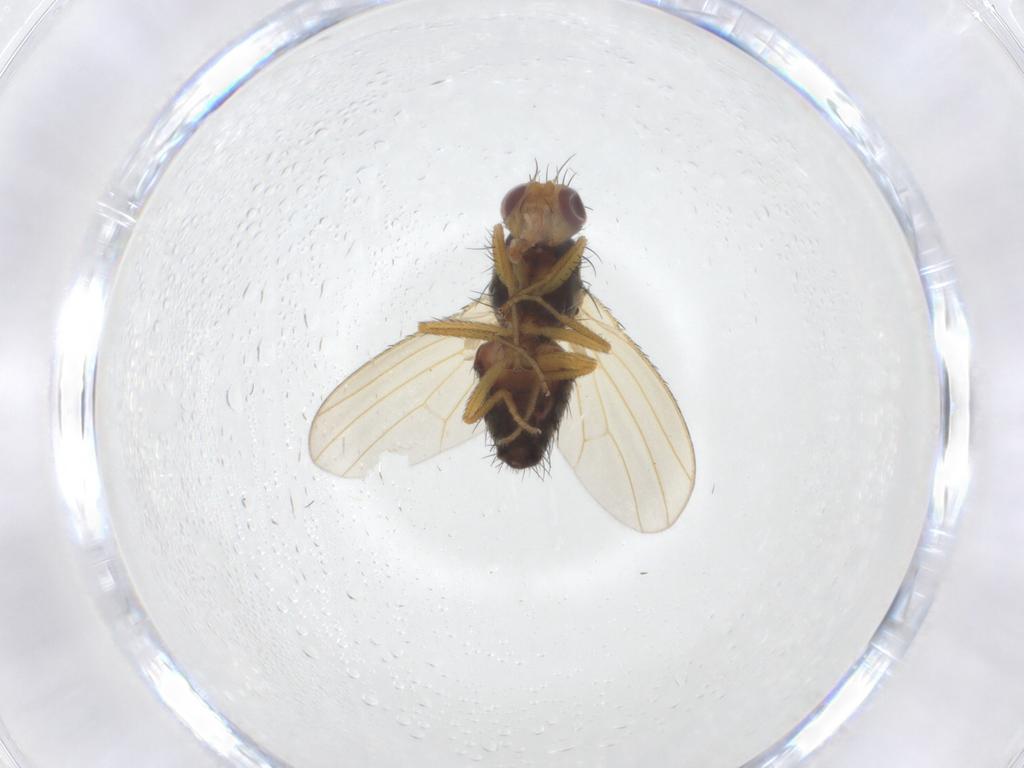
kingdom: Animalia
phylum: Arthropoda
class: Insecta
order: Diptera
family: Heleomyzidae
